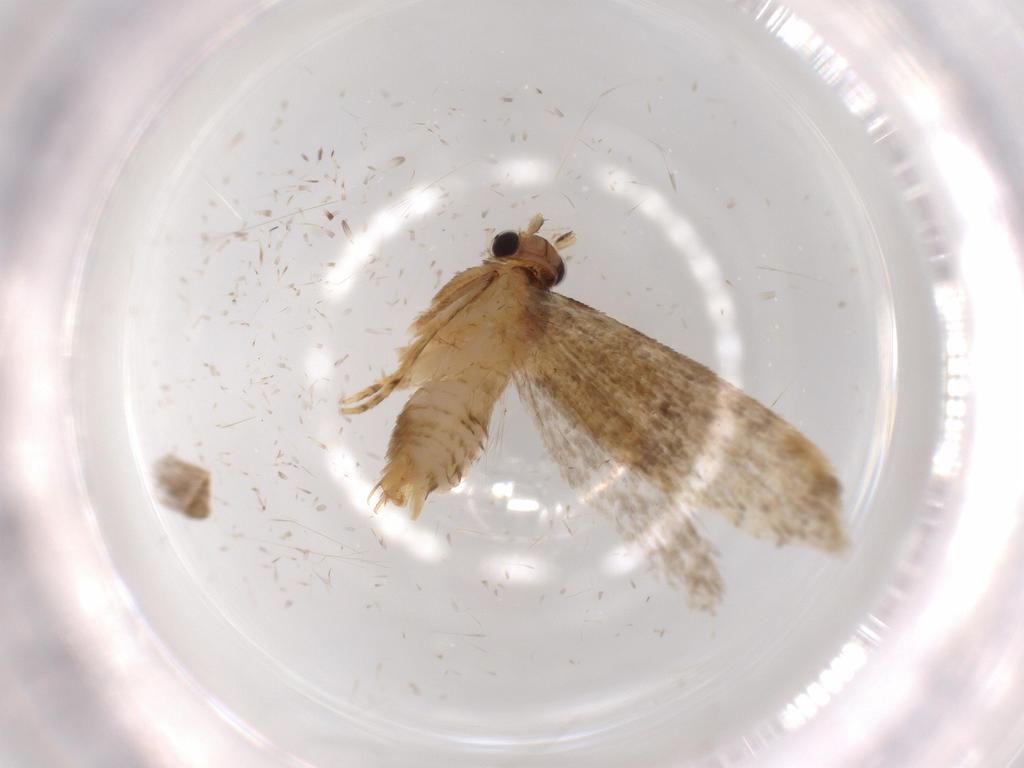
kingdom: Animalia
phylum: Arthropoda
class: Insecta
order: Lepidoptera
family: Tineidae
